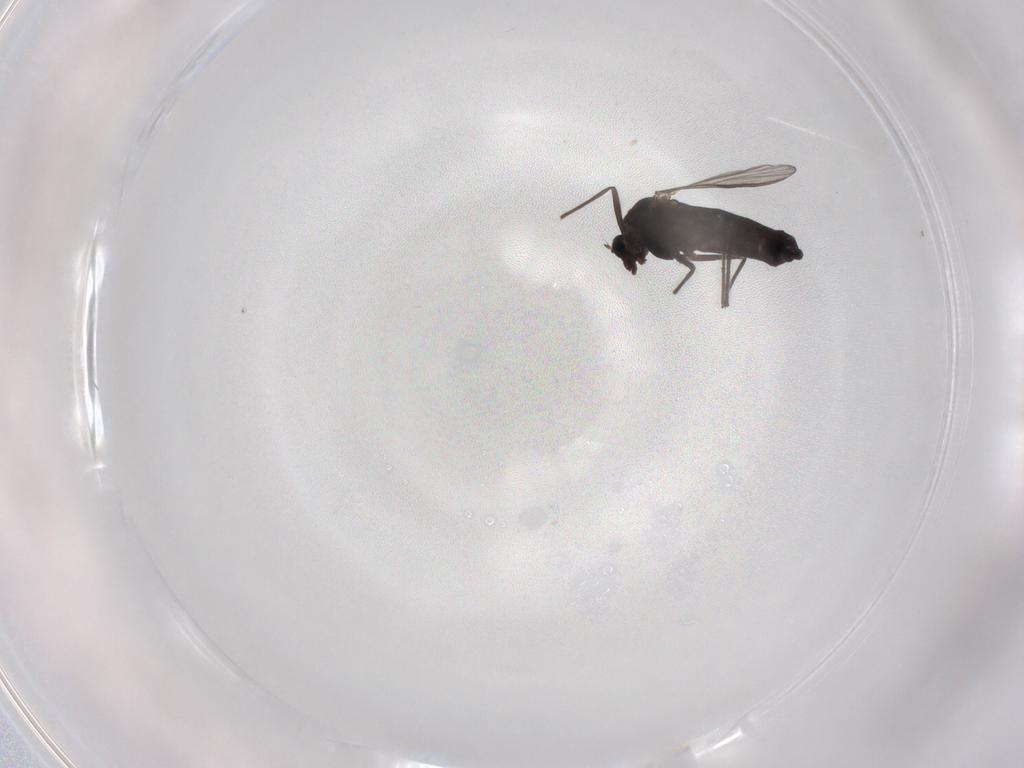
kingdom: Animalia
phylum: Arthropoda
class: Insecta
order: Diptera
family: Chironomidae
